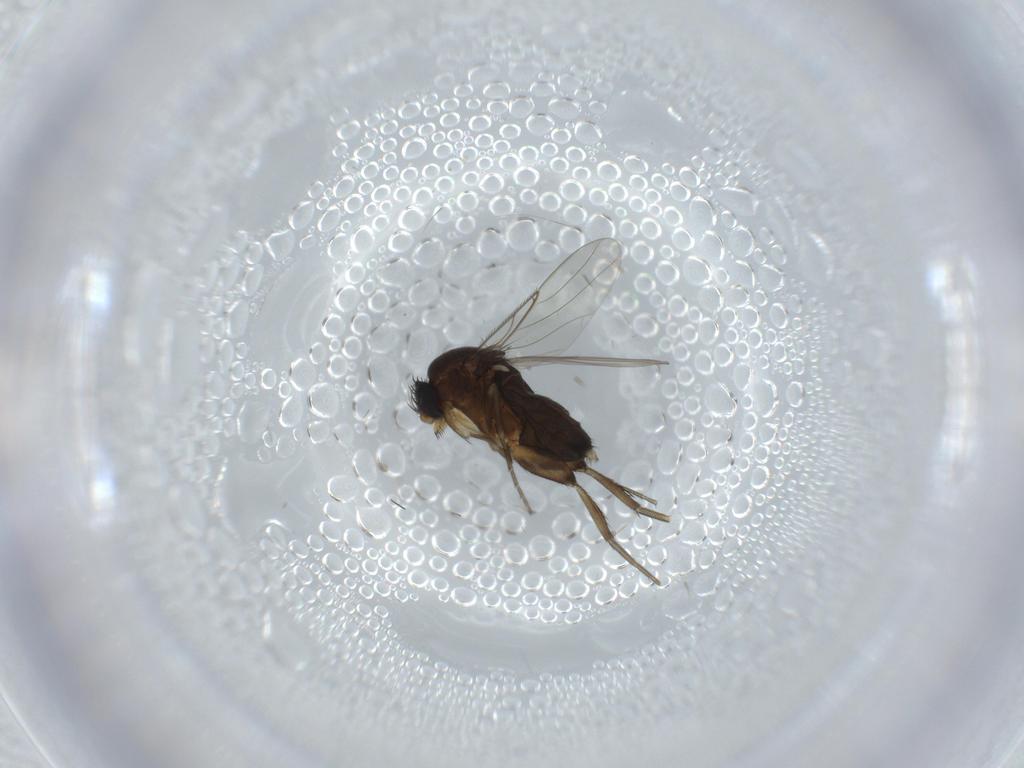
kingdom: Animalia
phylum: Arthropoda
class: Insecta
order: Diptera
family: Phoridae
